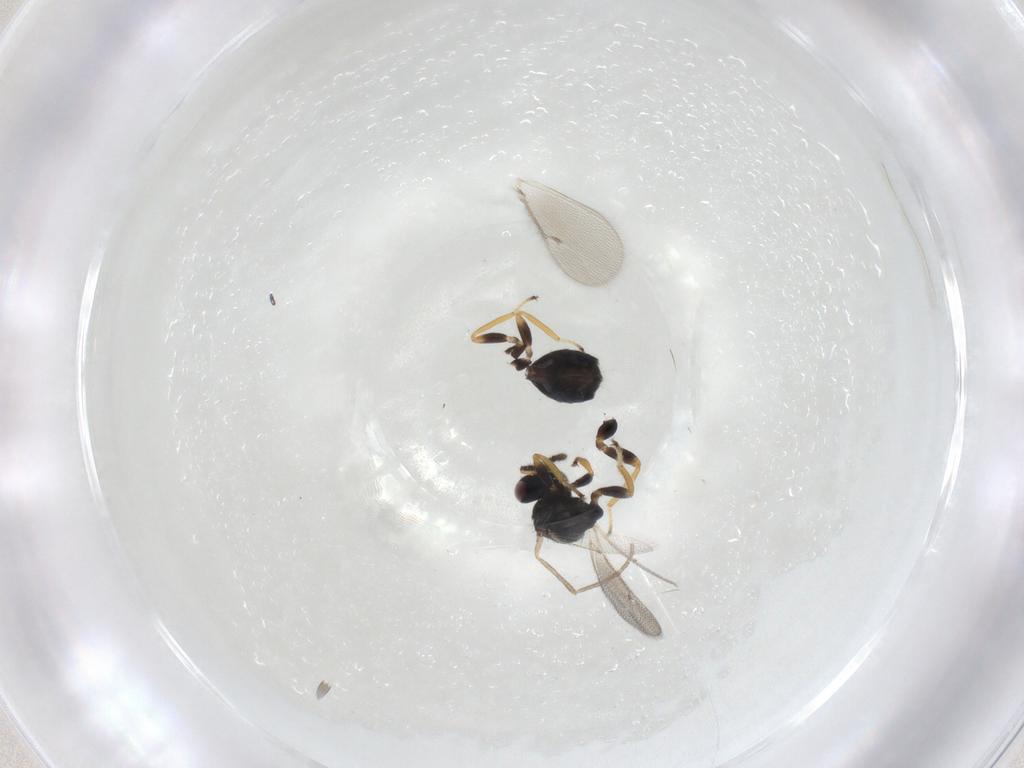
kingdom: Animalia
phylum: Arthropoda
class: Insecta
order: Hymenoptera
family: Eulophidae
